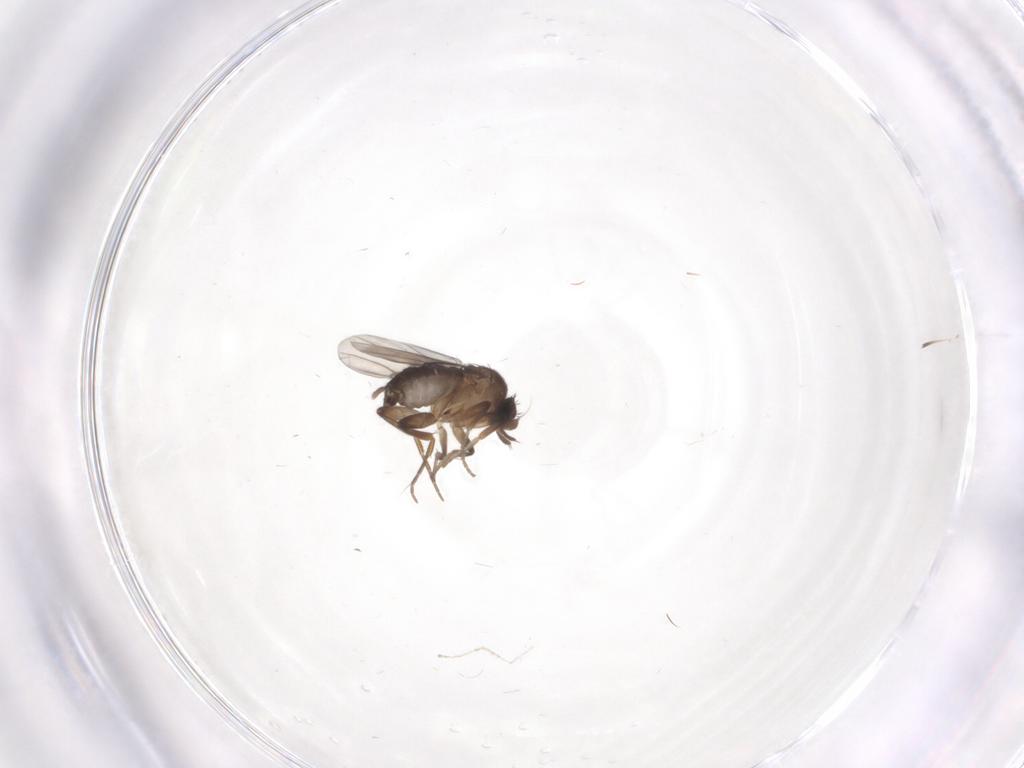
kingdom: Animalia
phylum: Arthropoda
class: Insecta
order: Diptera
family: Phoridae
